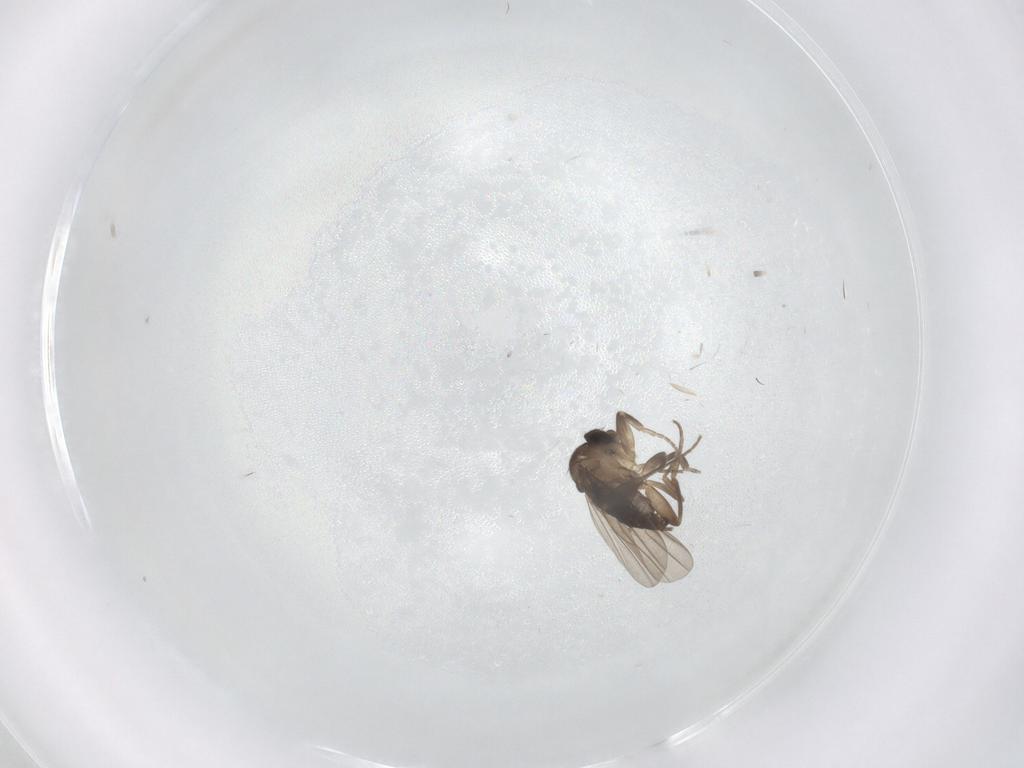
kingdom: Animalia
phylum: Arthropoda
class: Insecta
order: Diptera
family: Phoridae
